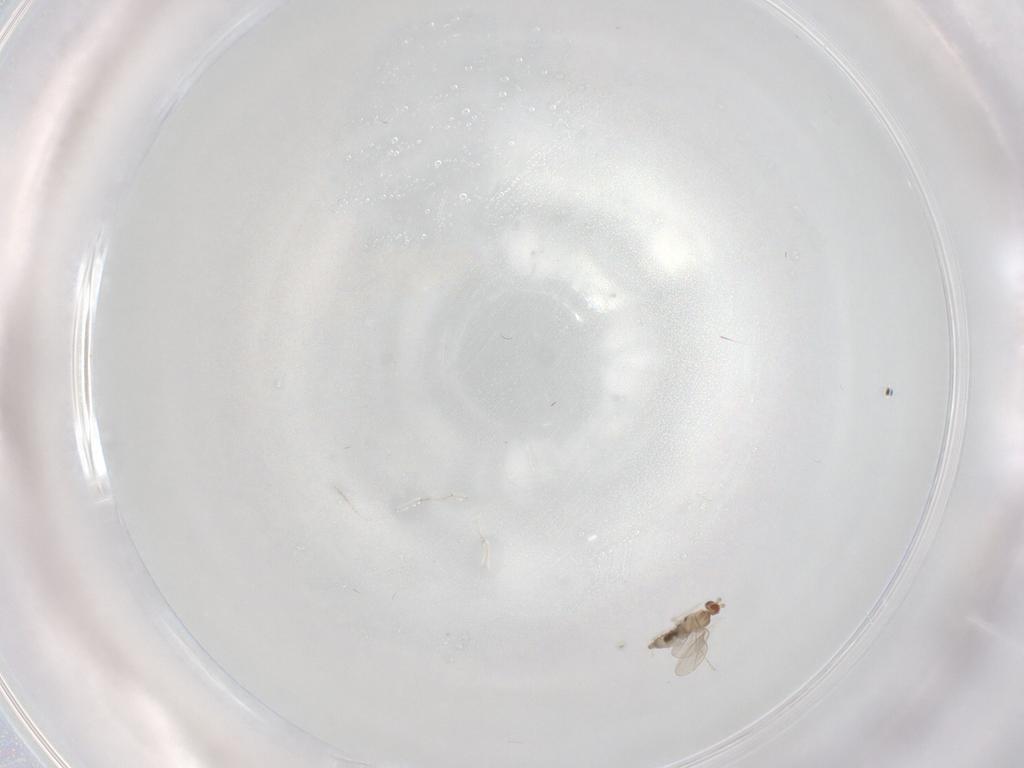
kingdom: Animalia
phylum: Arthropoda
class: Insecta
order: Diptera
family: Cecidomyiidae
